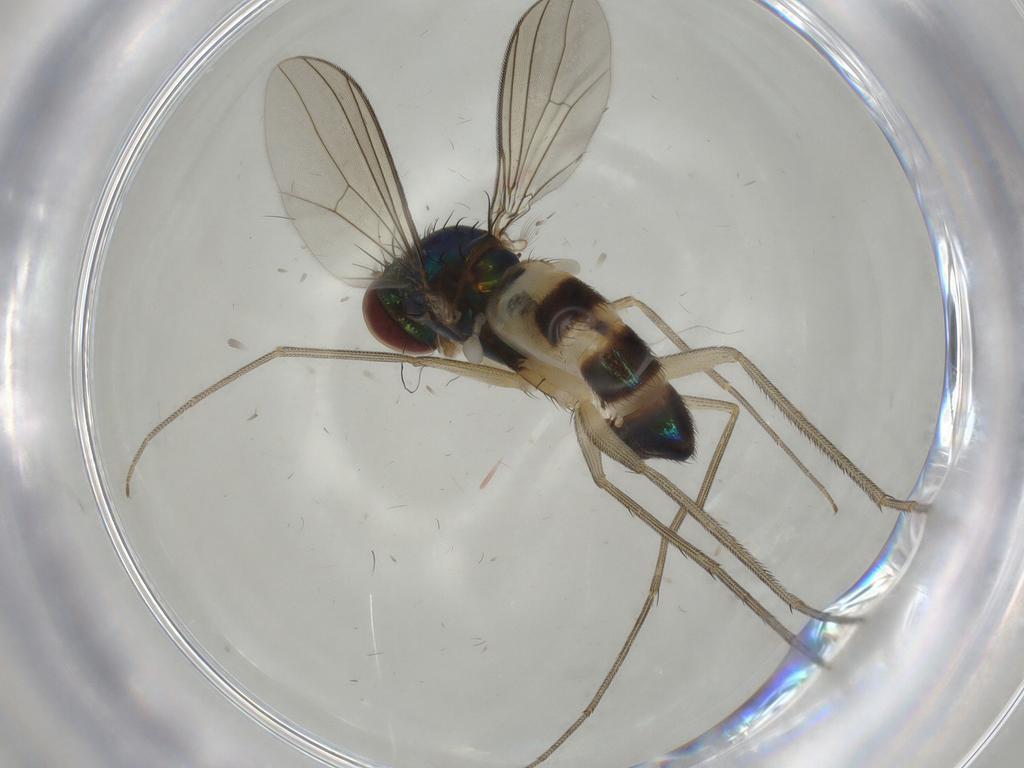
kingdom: Animalia
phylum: Arthropoda
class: Insecta
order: Diptera
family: Dolichopodidae
